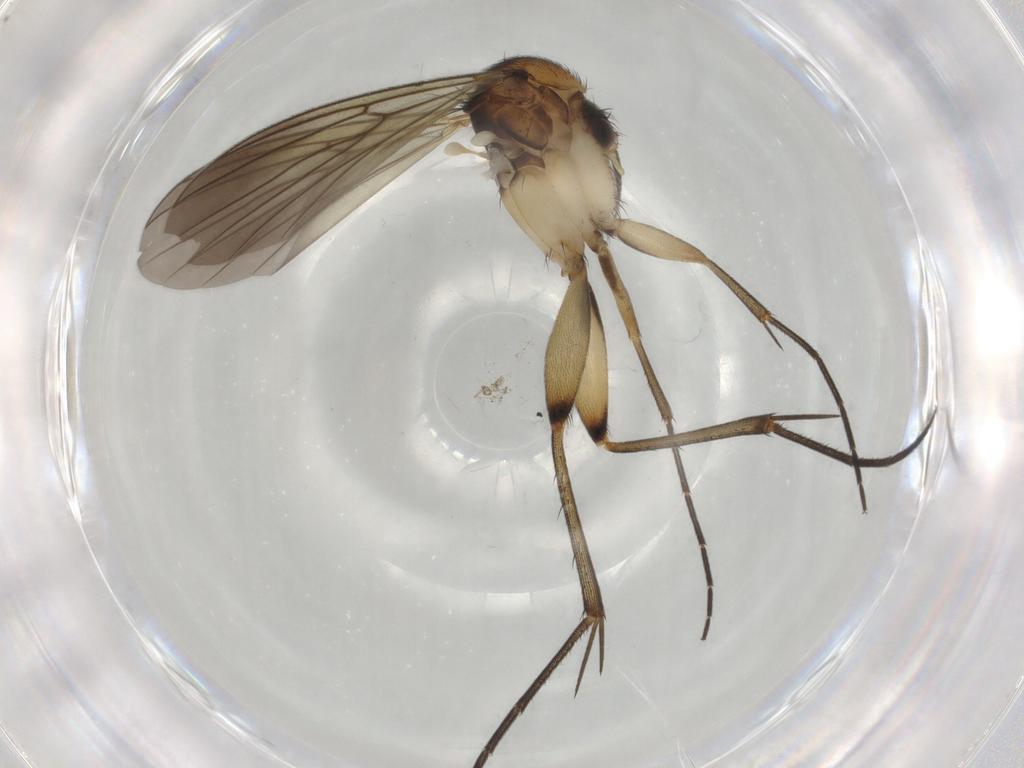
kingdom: Animalia
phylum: Arthropoda
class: Insecta
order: Diptera
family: Mycetophilidae
